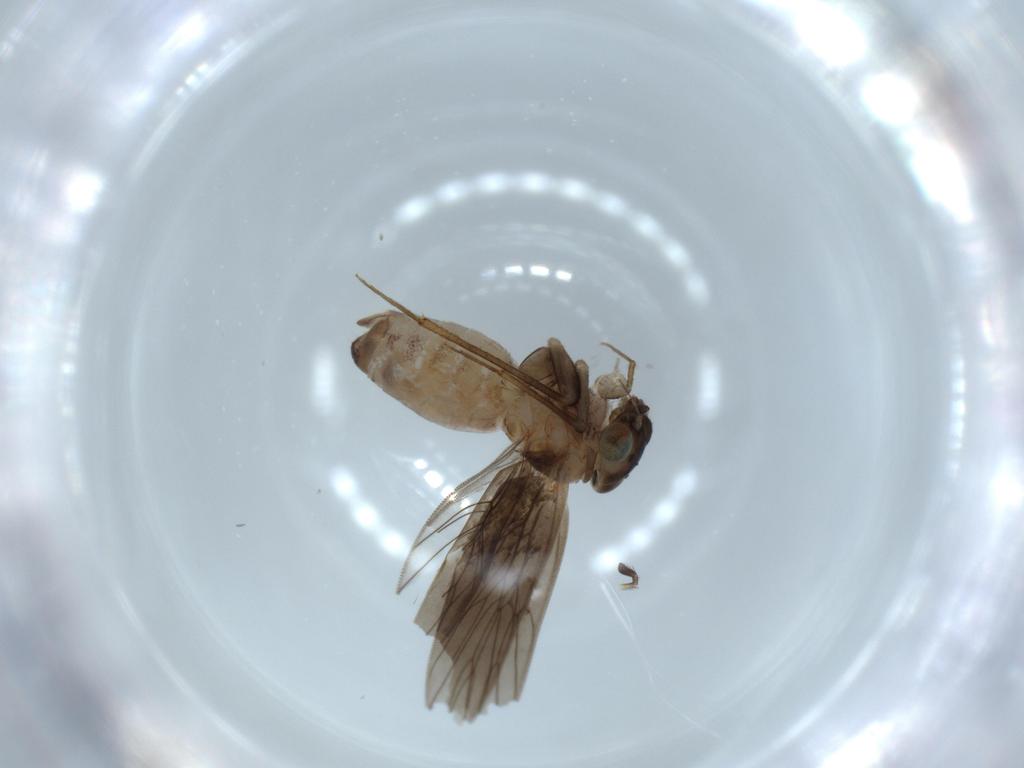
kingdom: Animalia
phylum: Arthropoda
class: Insecta
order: Psocodea
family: Lepidopsocidae
